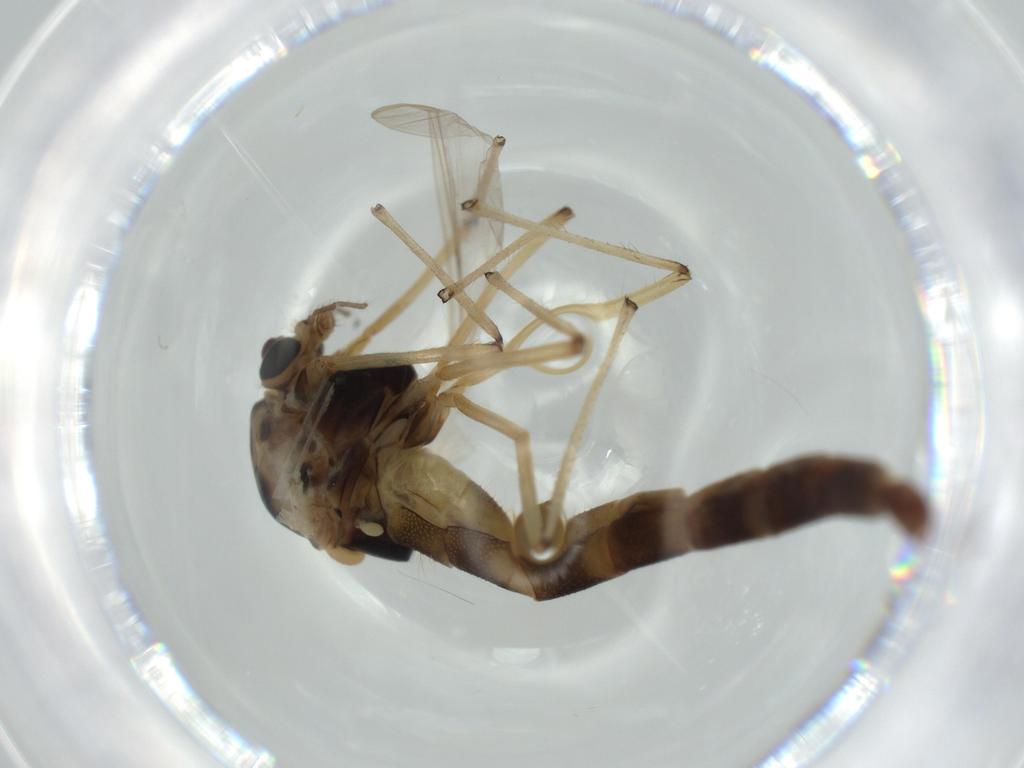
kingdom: Animalia
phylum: Arthropoda
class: Insecta
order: Diptera
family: Chironomidae
